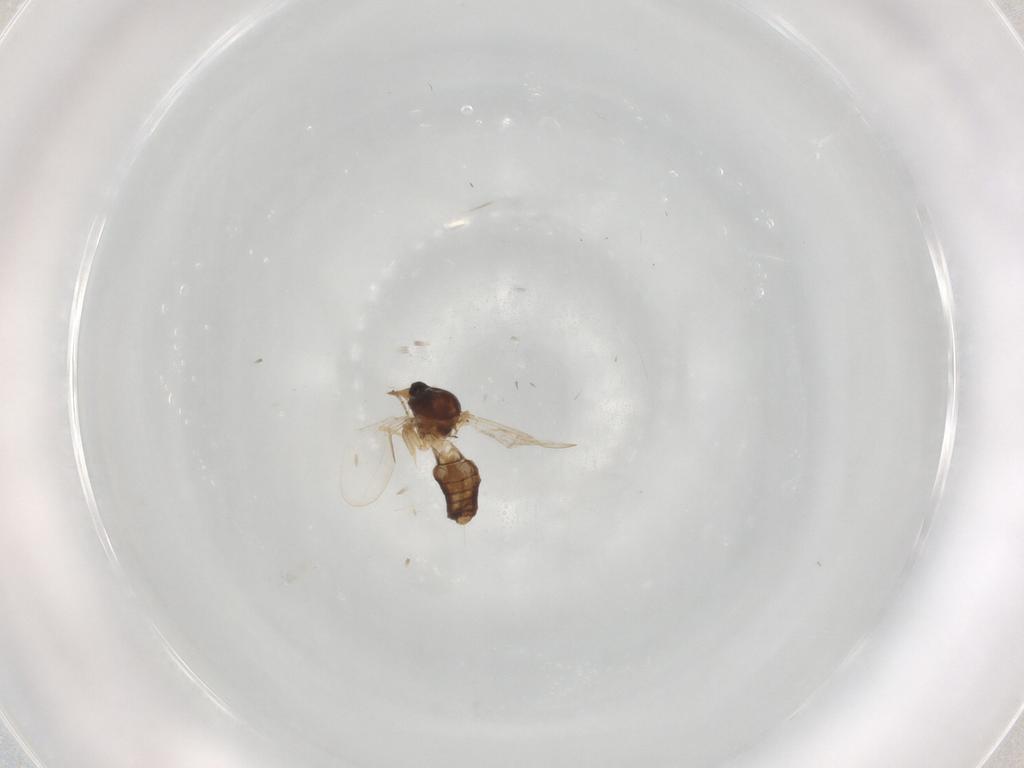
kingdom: Animalia
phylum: Arthropoda
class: Insecta
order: Diptera
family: Ceratopogonidae
